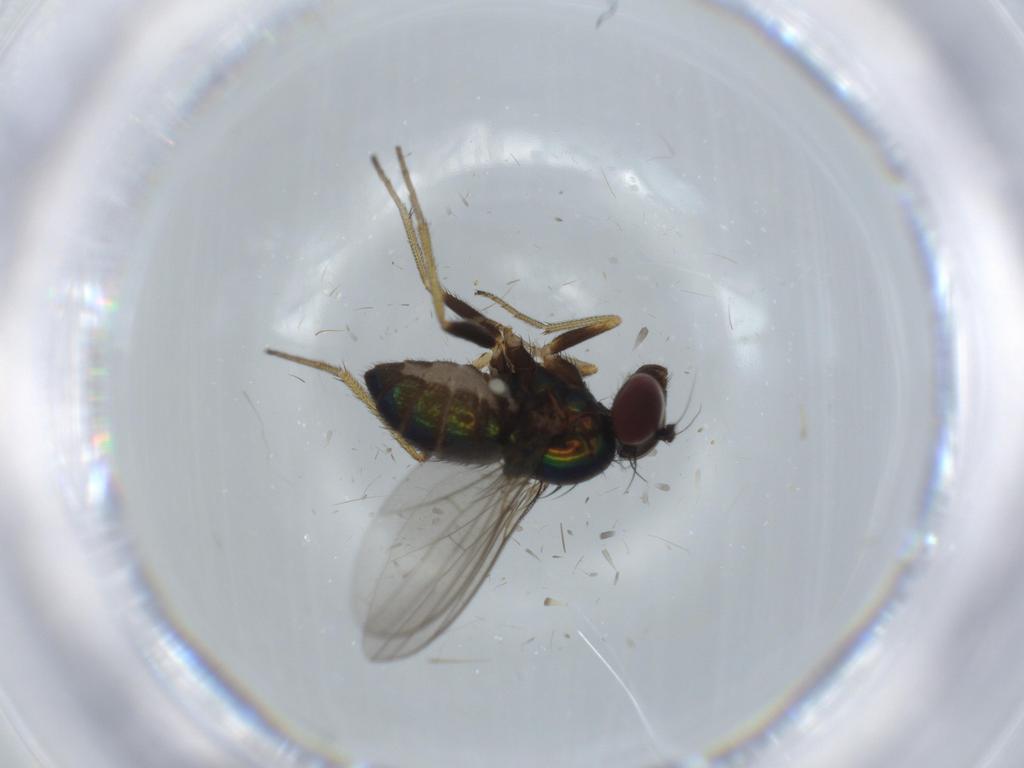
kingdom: Animalia
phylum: Arthropoda
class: Insecta
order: Diptera
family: Dolichopodidae
